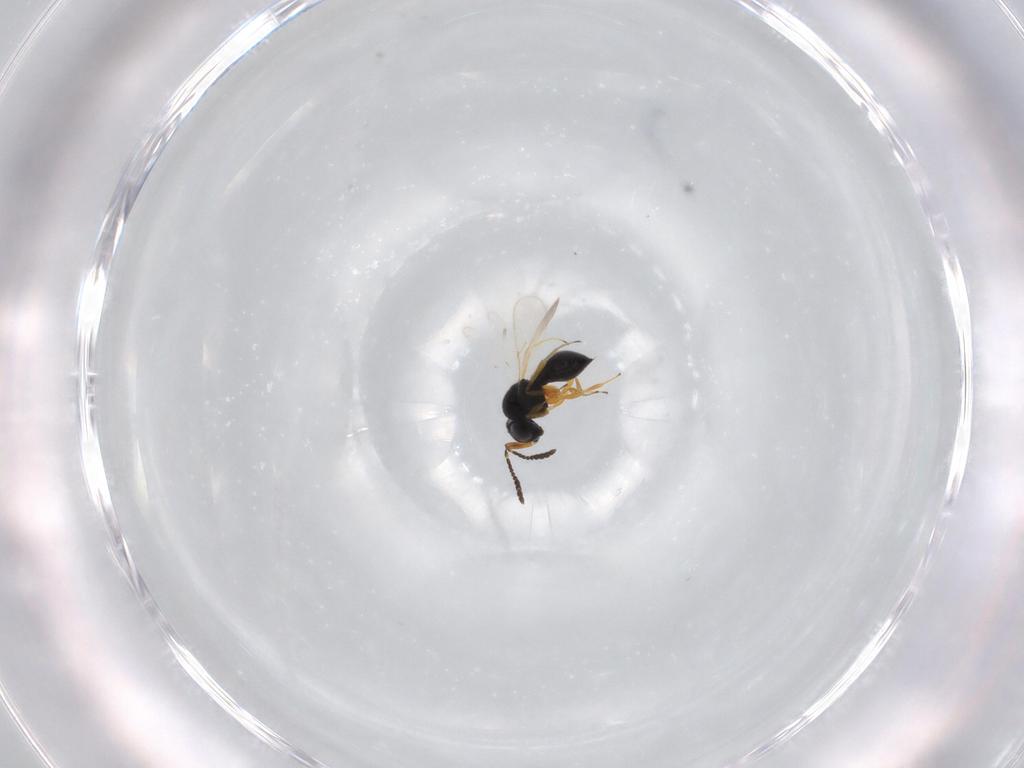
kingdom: Animalia
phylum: Arthropoda
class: Insecta
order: Hymenoptera
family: Scelionidae
